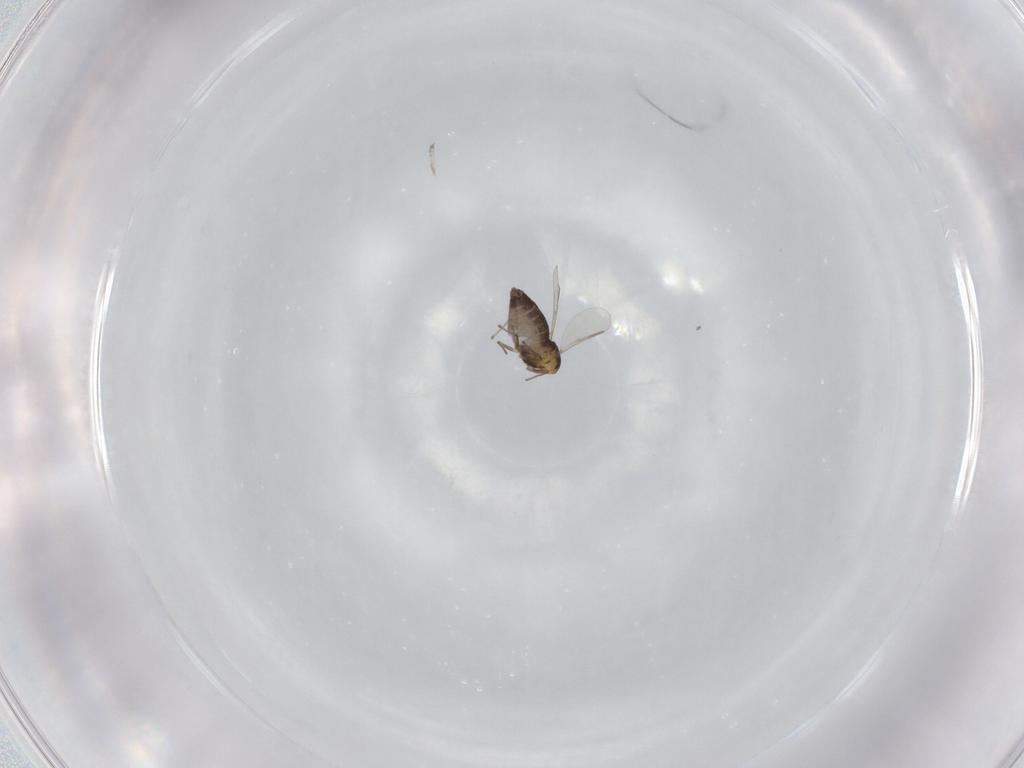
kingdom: Animalia
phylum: Arthropoda
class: Insecta
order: Diptera
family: Chironomidae
